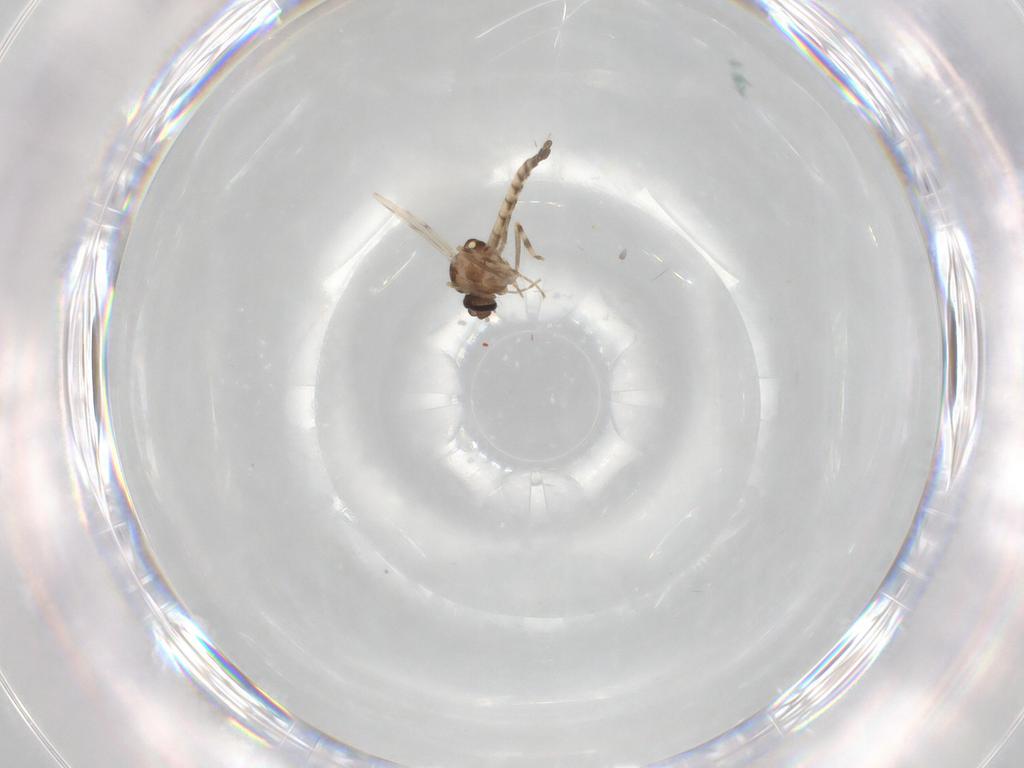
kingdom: Animalia
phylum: Arthropoda
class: Insecta
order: Diptera
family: Ceratopogonidae
